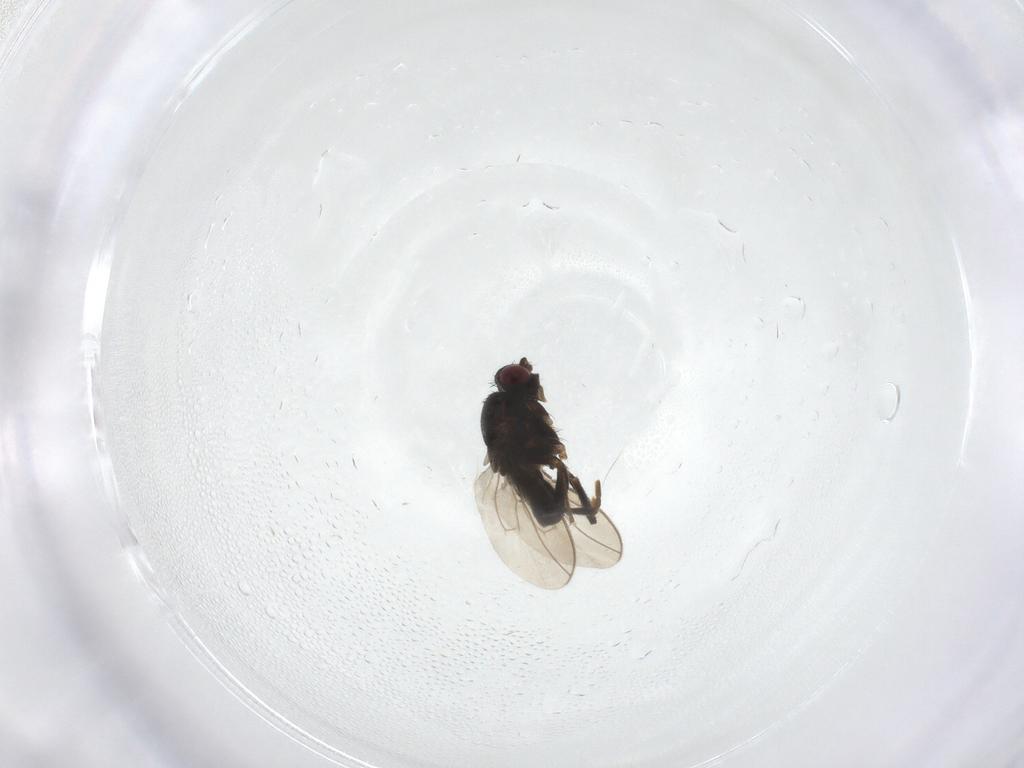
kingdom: Animalia
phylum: Arthropoda
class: Insecta
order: Diptera
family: Sphaeroceridae
